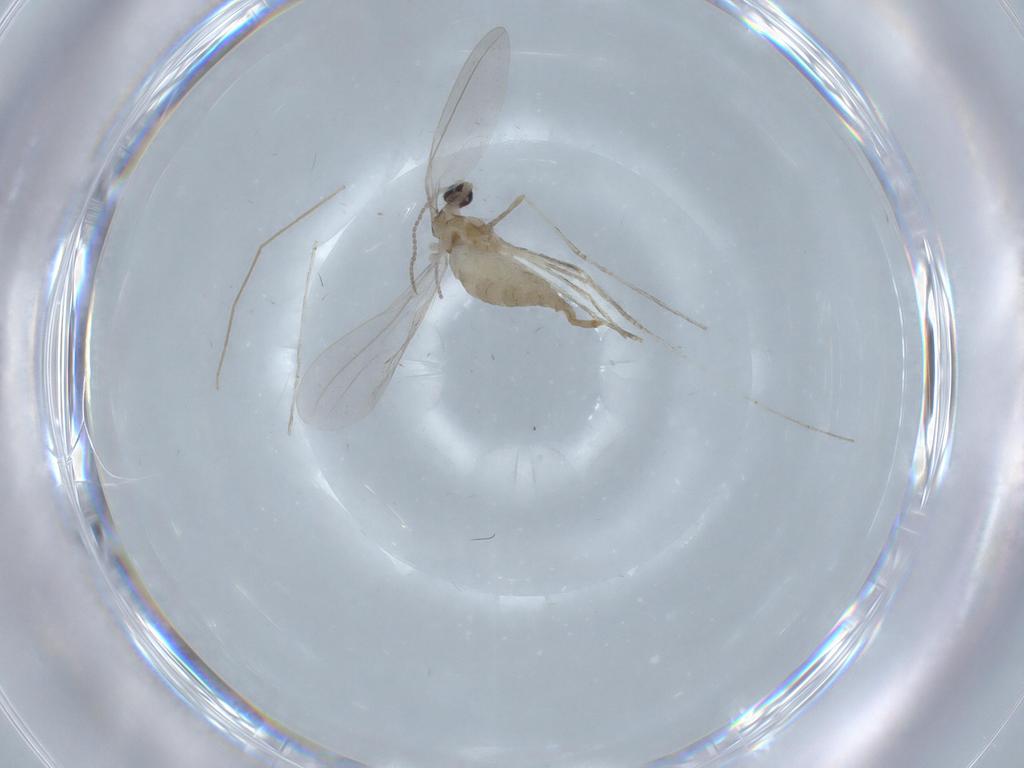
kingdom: Animalia
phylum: Arthropoda
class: Insecta
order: Diptera
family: Cecidomyiidae
